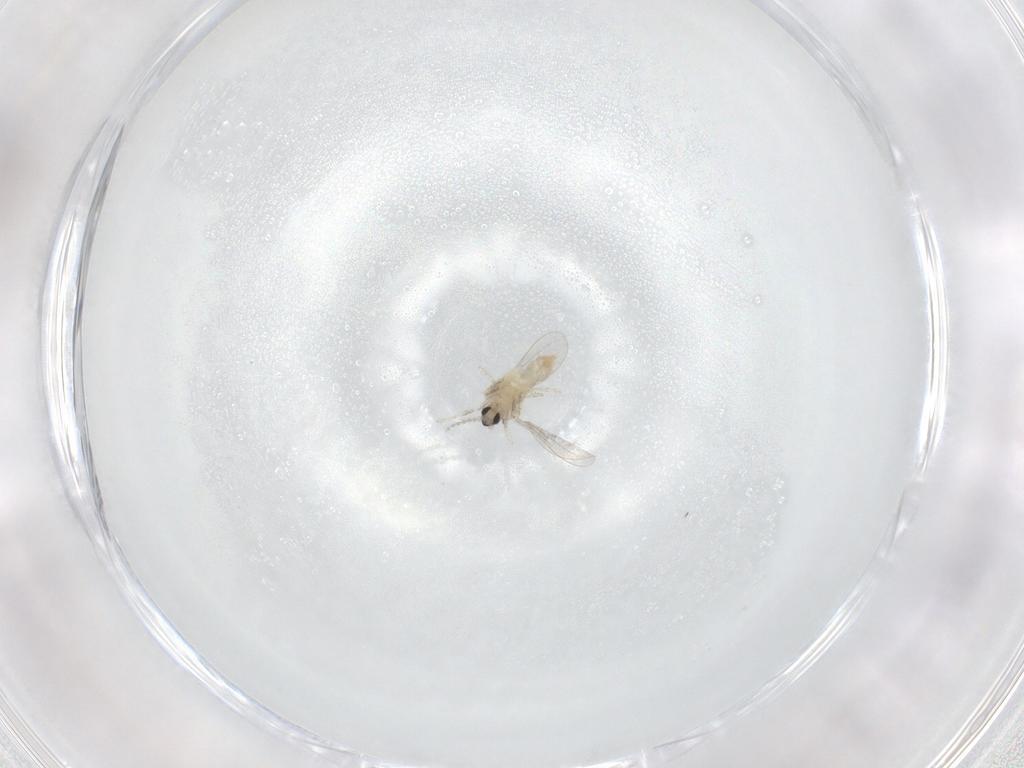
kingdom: Animalia
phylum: Arthropoda
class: Insecta
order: Diptera
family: Cecidomyiidae
